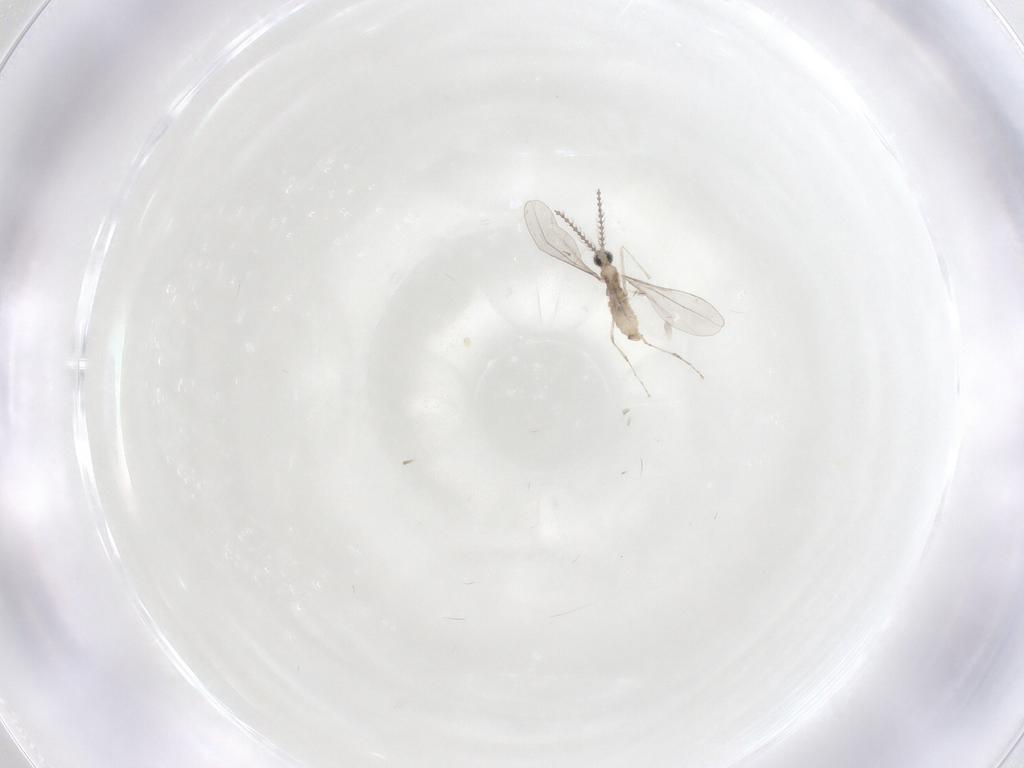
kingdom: Animalia
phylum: Arthropoda
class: Insecta
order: Diptera
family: Cecidomyiidae
